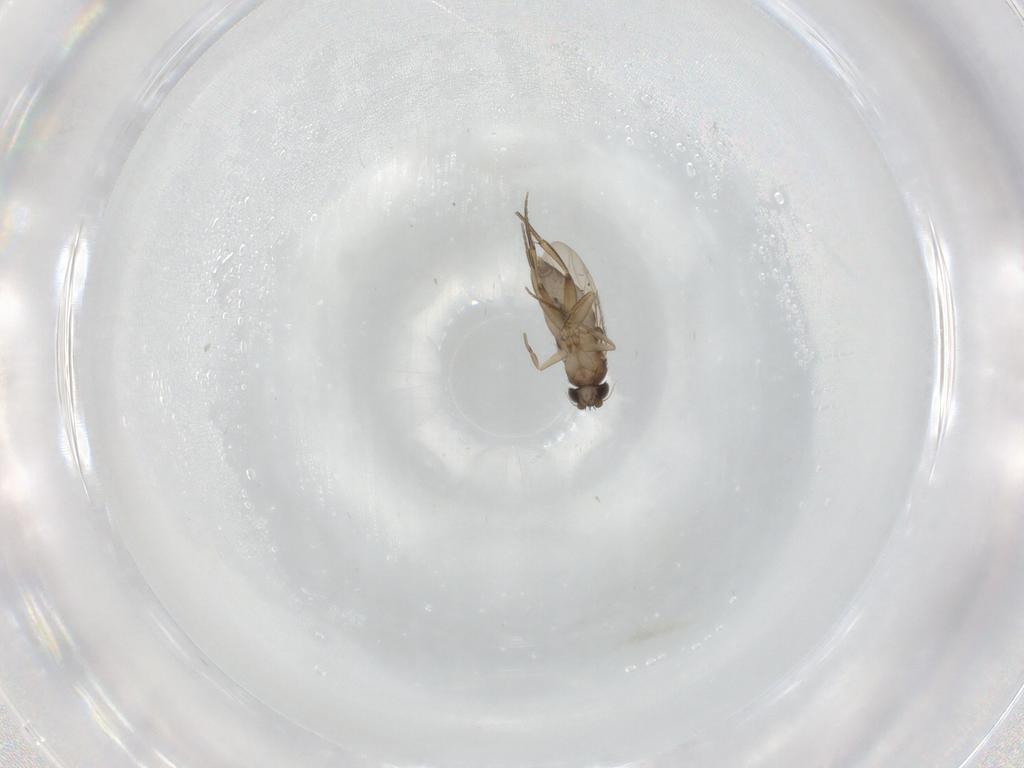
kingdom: Animalia
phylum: Arthropoda
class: Insecta
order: Diptera
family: Phoridae
